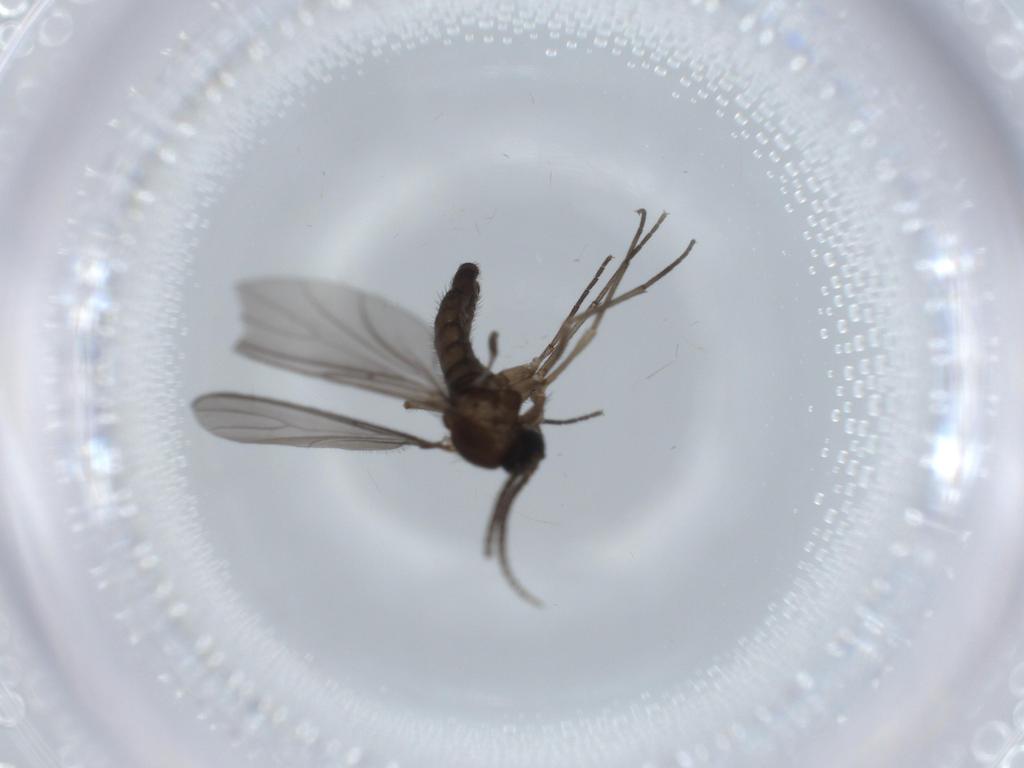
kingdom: Animalia
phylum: Arthropoda
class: Insecta
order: Diptera
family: Sciaridae
